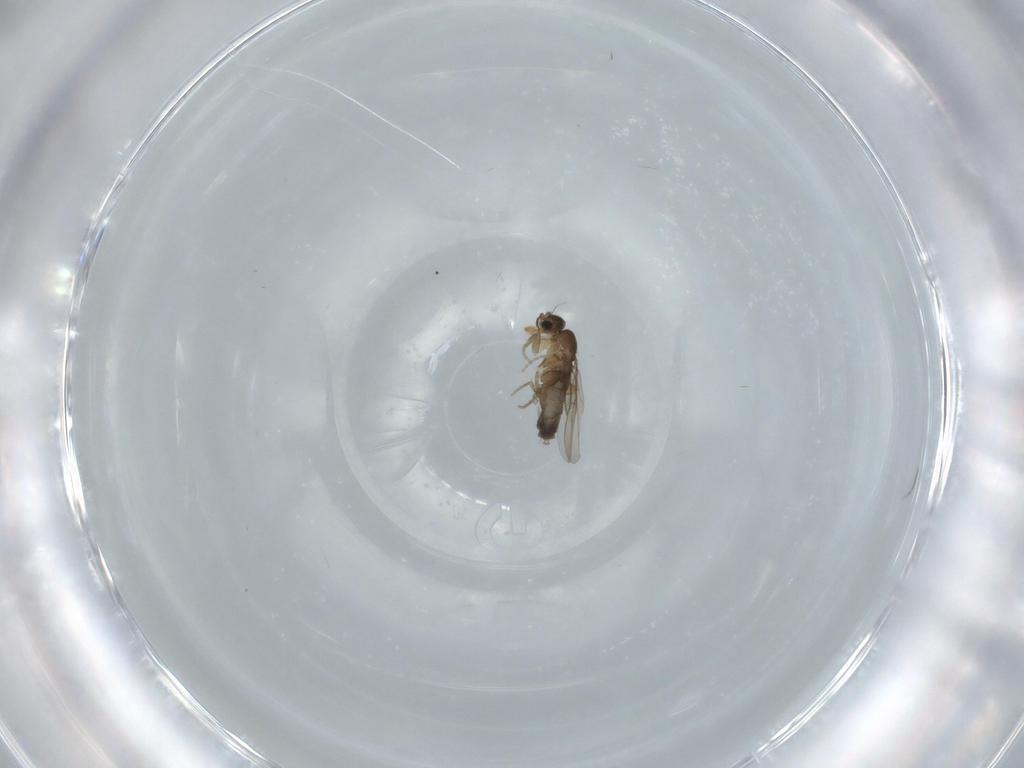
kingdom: Animalia
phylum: Arthropoda
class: Insecta
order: Diptera
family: Phoridae
